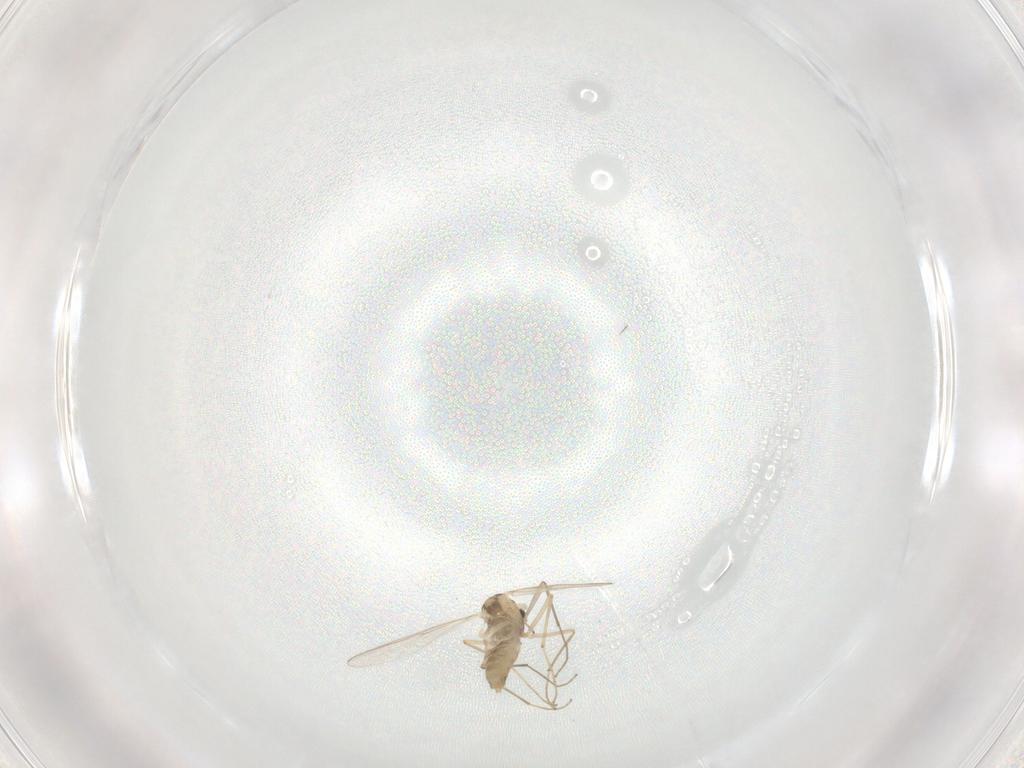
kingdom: Animalia
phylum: Arthropoda
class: Insecta
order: Diptera
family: Chironomidae
